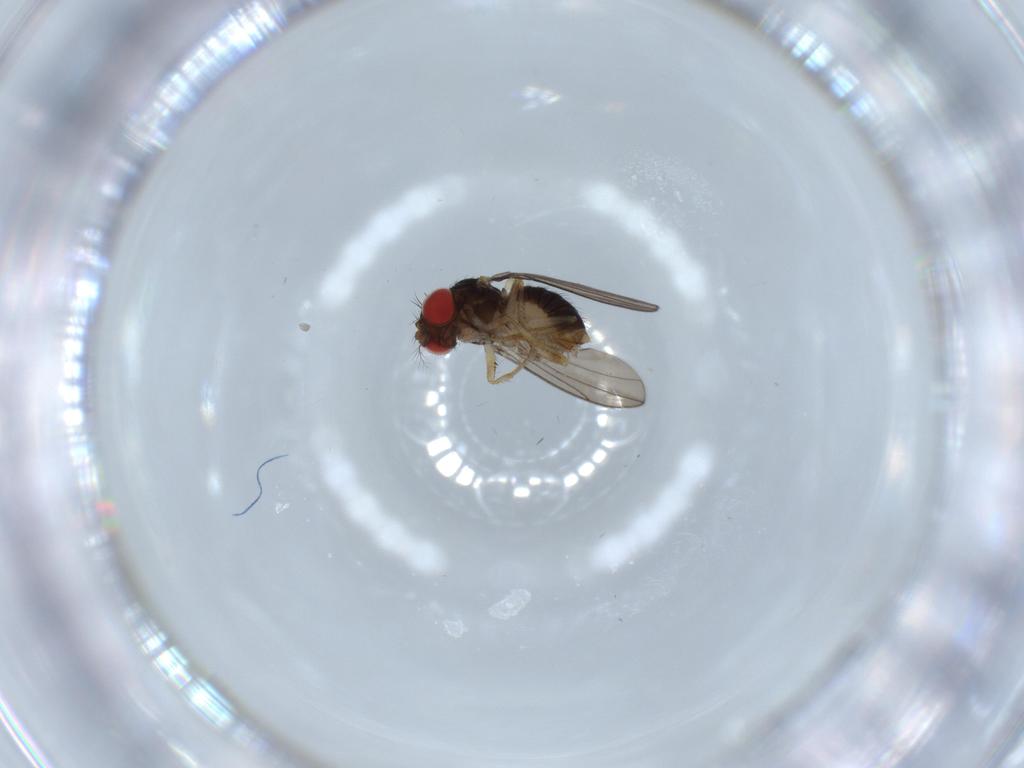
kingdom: Animalia
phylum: Arthropoda
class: Insecta
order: Diptera
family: Drosophilidae
